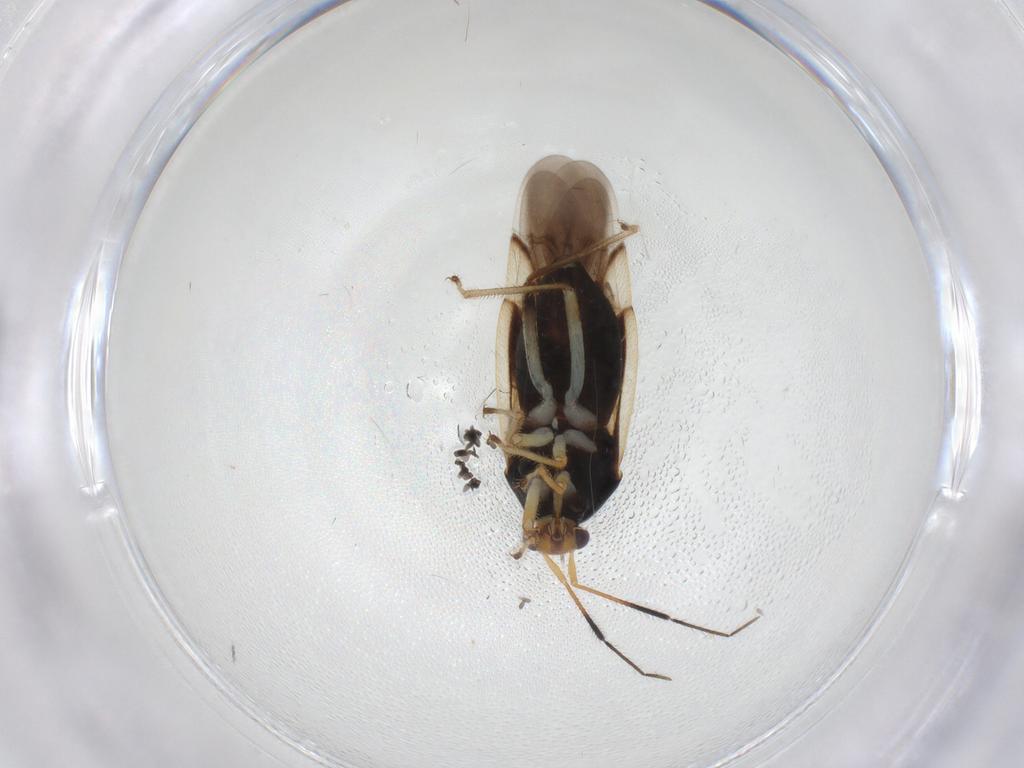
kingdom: Animalia
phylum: Arthropoda
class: Insecta
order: Hemiptera
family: Miridae
